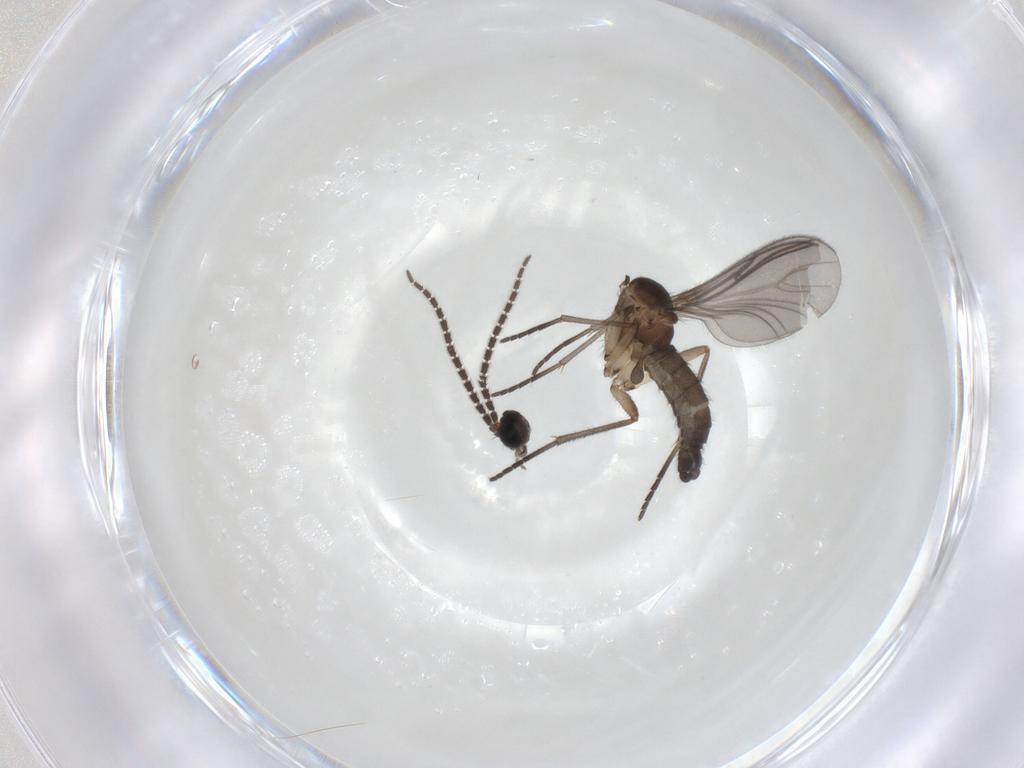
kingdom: Animalia
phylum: Arthropoda
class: Insecta
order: Diptera
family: Sciaridae
